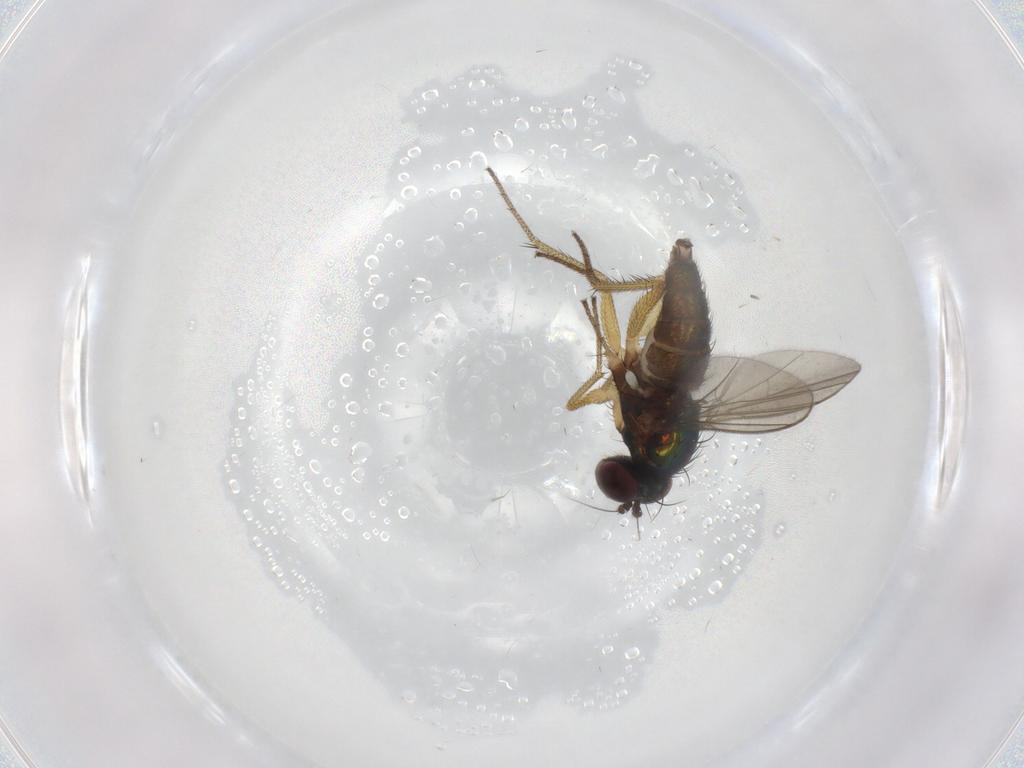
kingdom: Animalia
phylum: Arthropoda
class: Insecta
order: Diptera
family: Dolichopodidae
